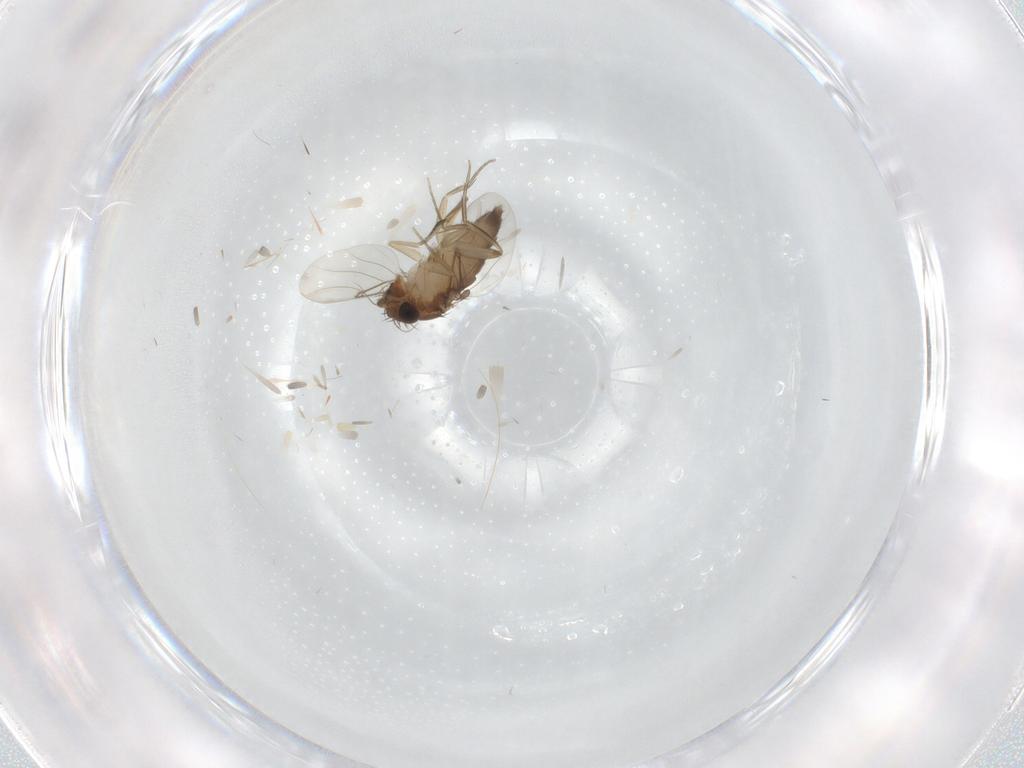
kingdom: Animalia
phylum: Arthropoda
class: Insecta
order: Diptera
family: Phoridae
